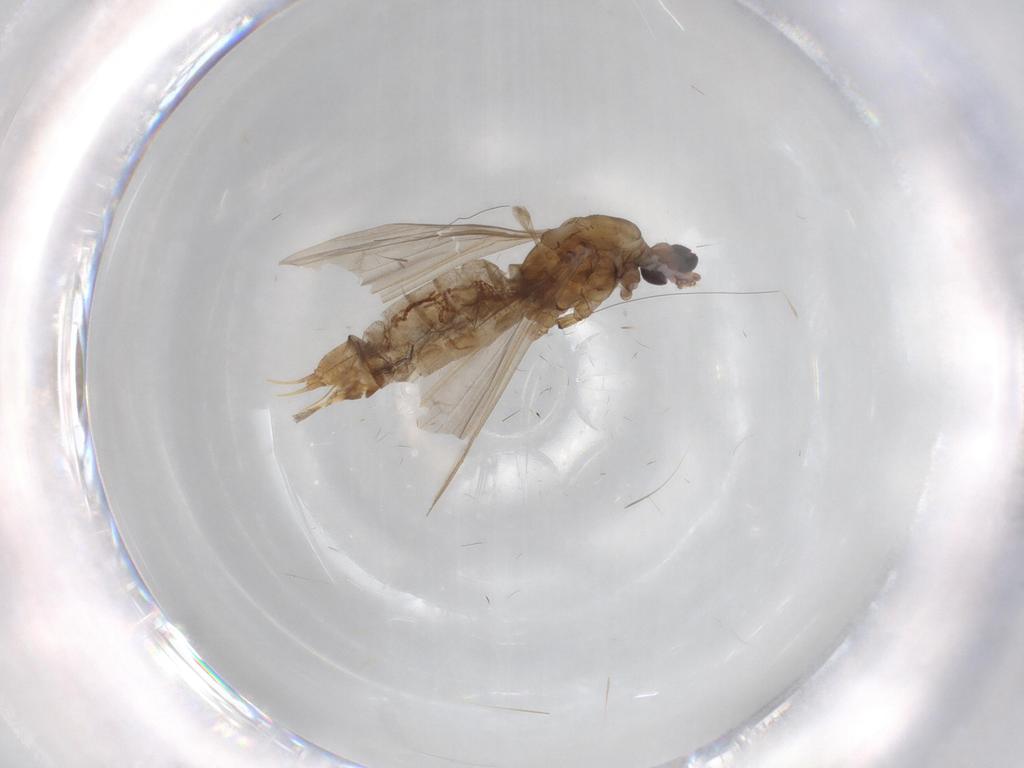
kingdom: Animalia
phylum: Arthropoda
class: Insecta
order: Diptera
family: Limoniidae
